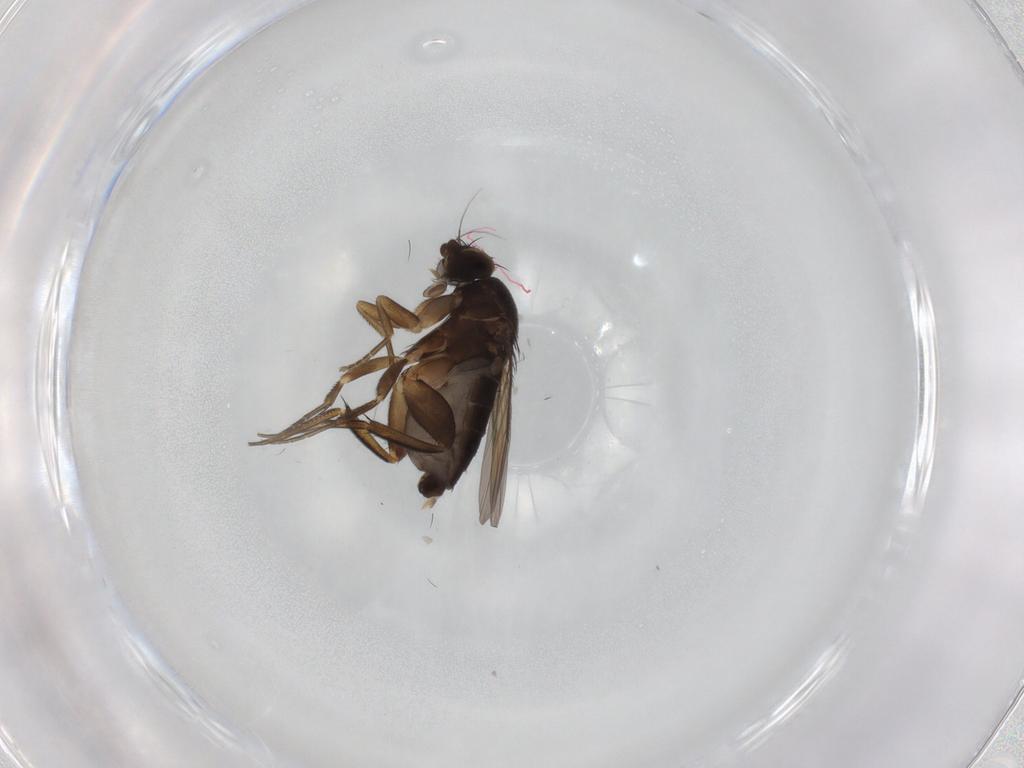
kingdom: Animalia
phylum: Arthropoda
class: Insecta
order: Diptera
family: Phoridae
